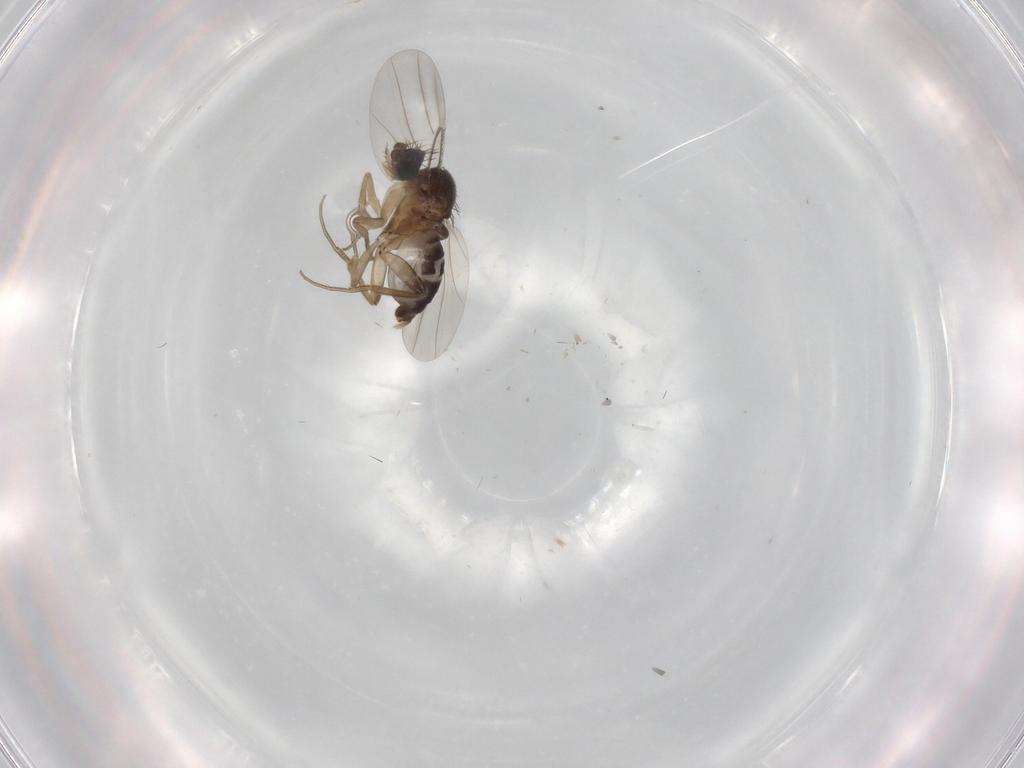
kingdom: Animalia
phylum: Arthropoda
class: Insecta
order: Diptera
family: Phoridae
